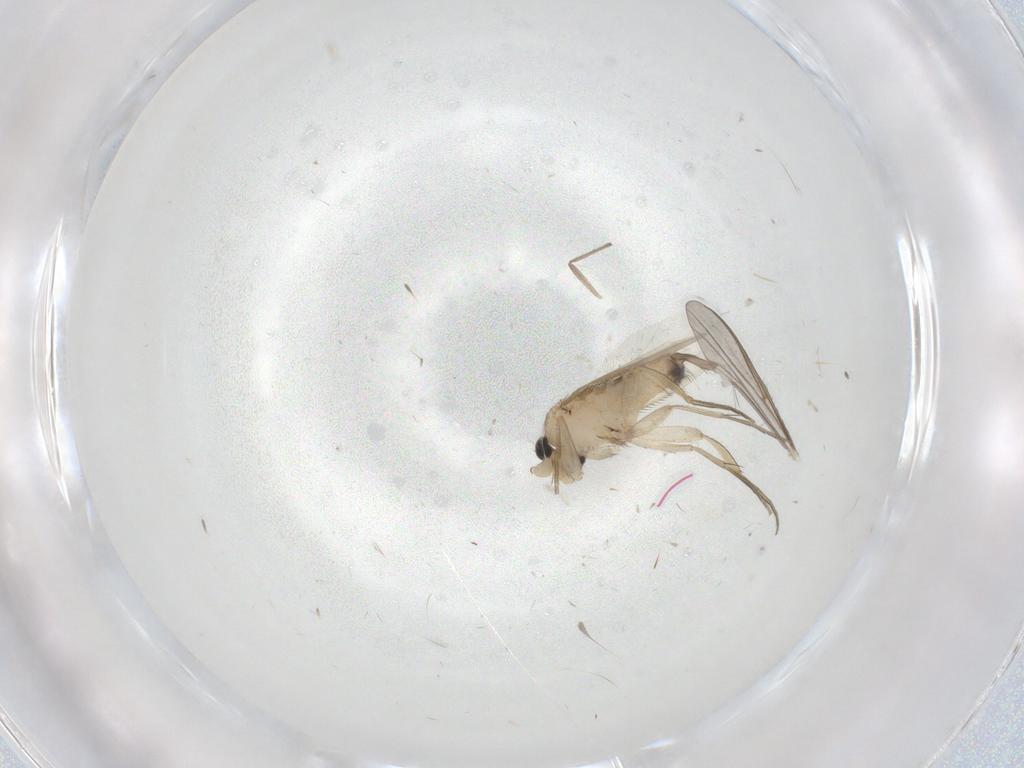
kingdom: Animalia
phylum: Arthropoda
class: Insecta
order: Diptera
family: Phoridae
